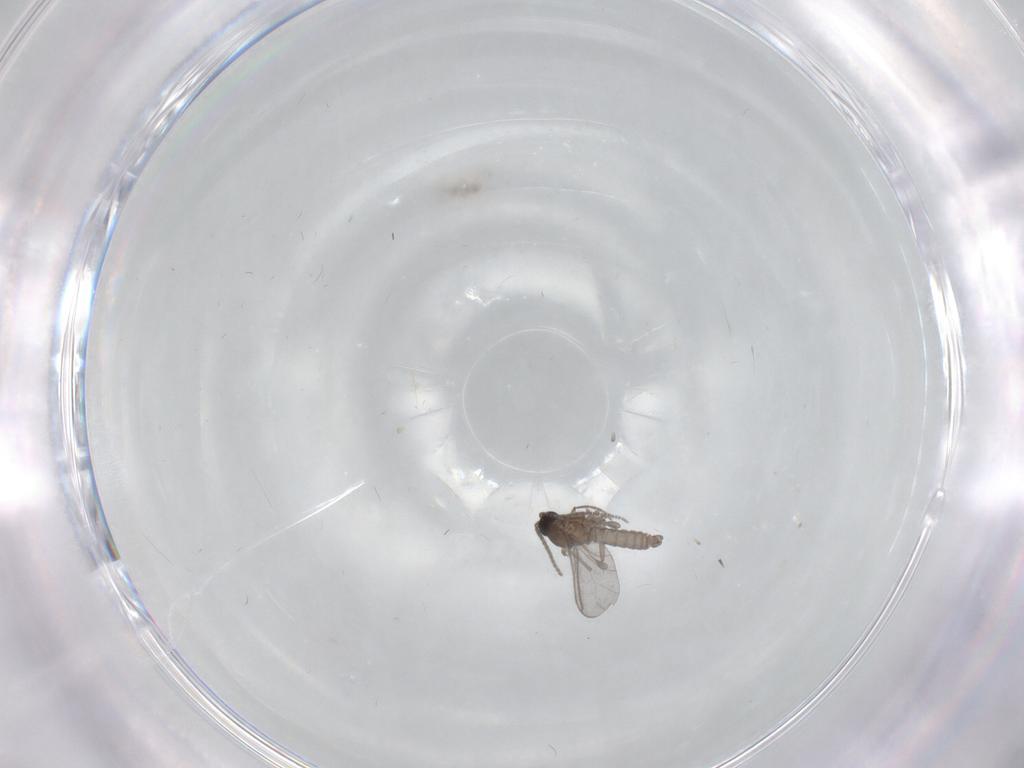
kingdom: Animalia
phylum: Arthropoda
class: Insecta
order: Diptera
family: Sciaridae
